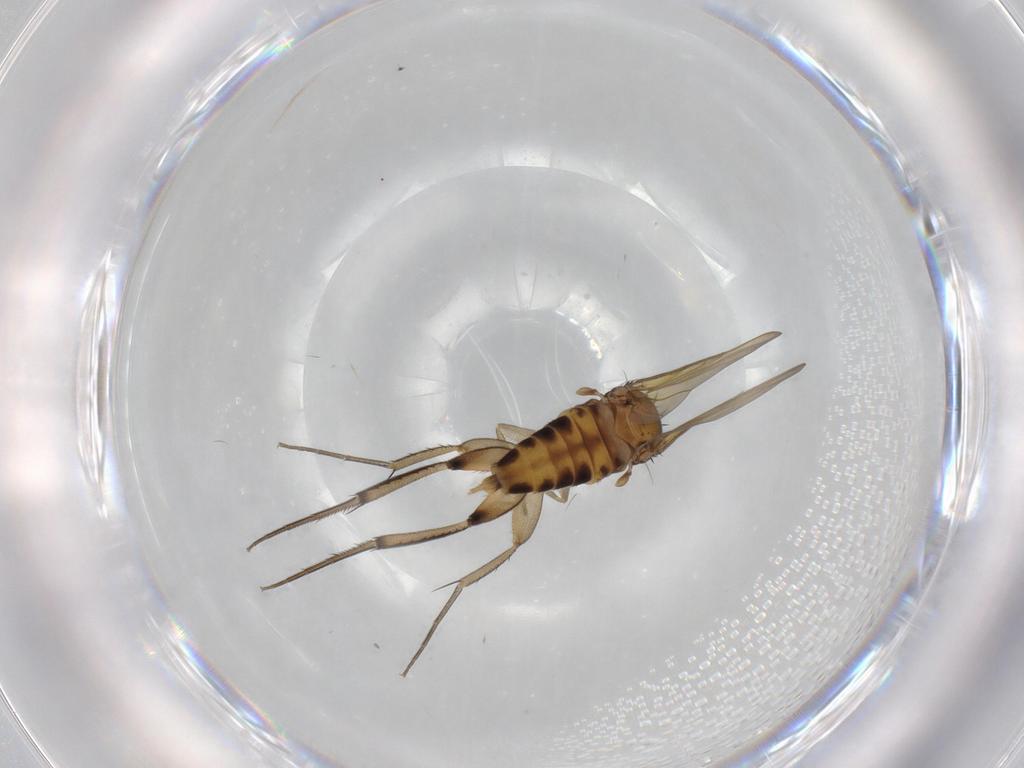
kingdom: Animalia
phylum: Arthropoda
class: Insecta
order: Diptera
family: Phoridae
